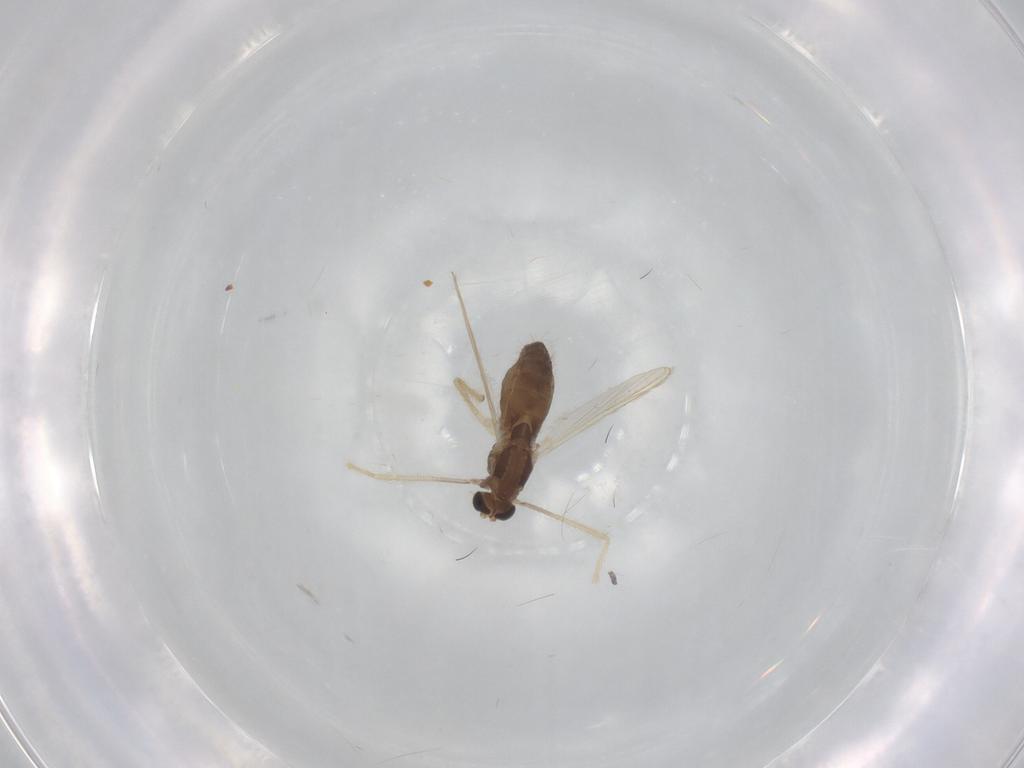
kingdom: Animalia
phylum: Arthropoda
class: Insecta
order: Diptera
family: Chironomidae
